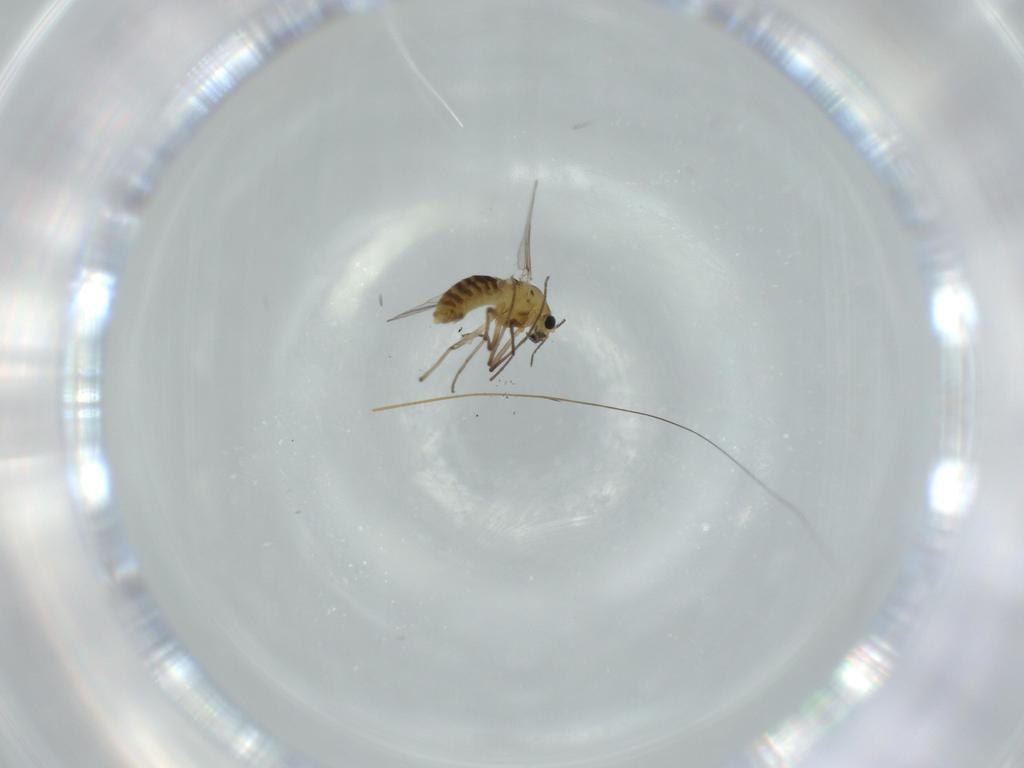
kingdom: Animalia
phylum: Arthropoda
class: Insecta
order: Diptera
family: Chironomidae
